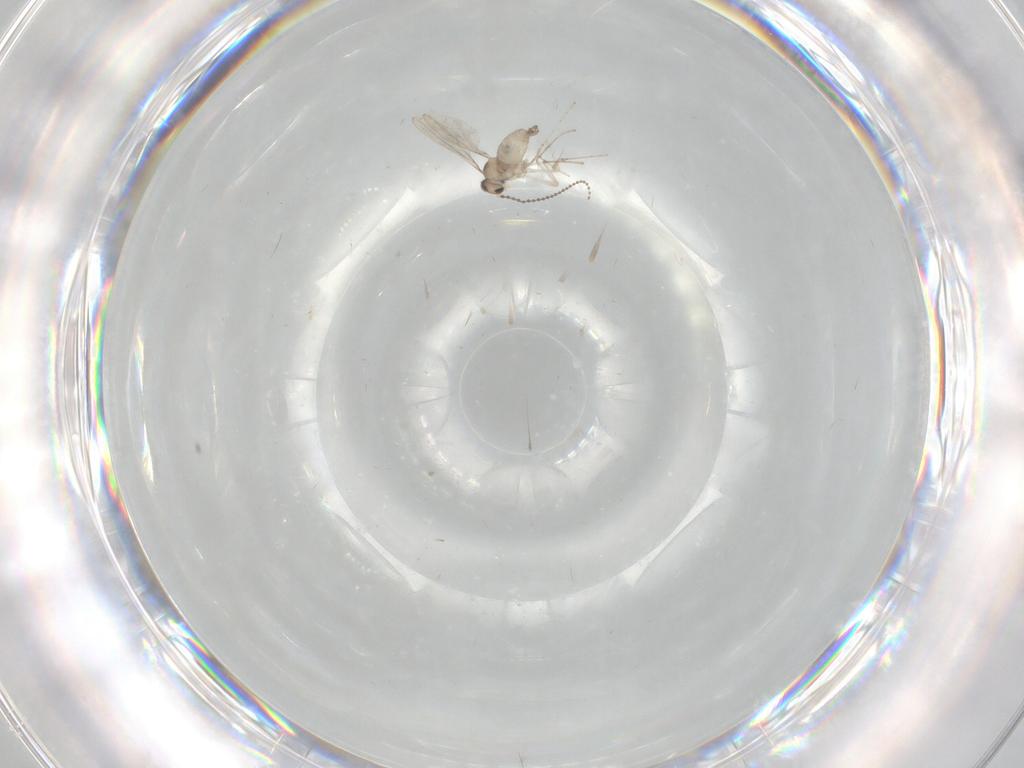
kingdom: Animalia
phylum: Arthropoda
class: Insecta
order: Diptera
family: Cecidomyiidae
